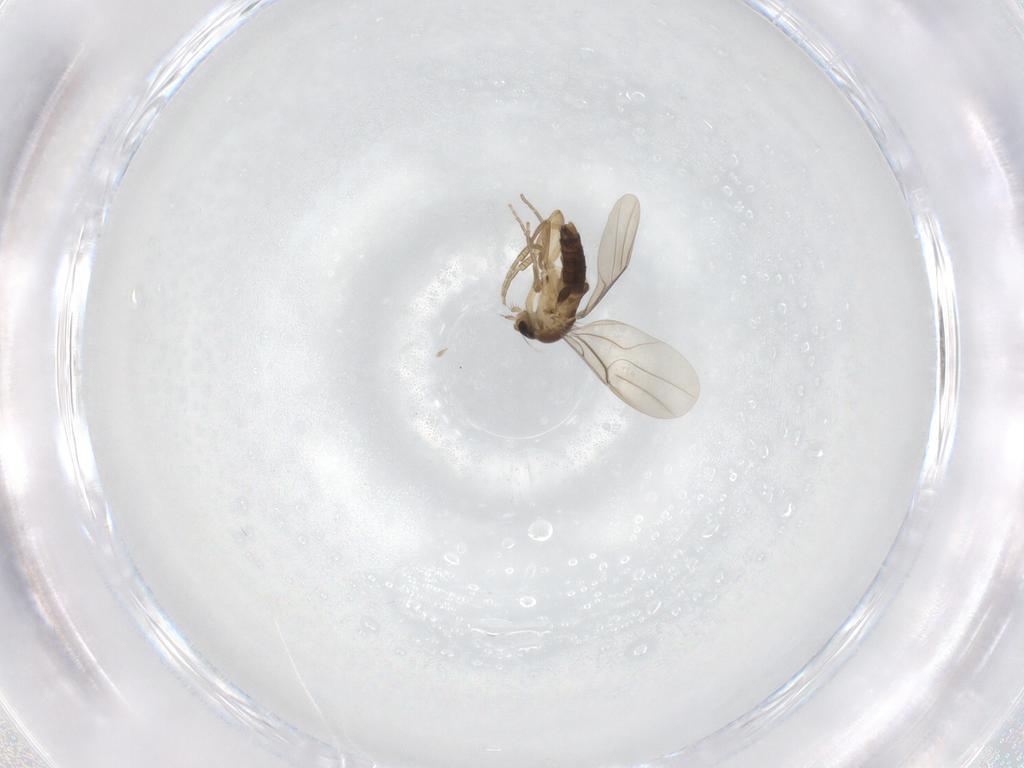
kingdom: Animalia
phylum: Arthropoda
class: Insecta
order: Diptera
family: Phoridae
